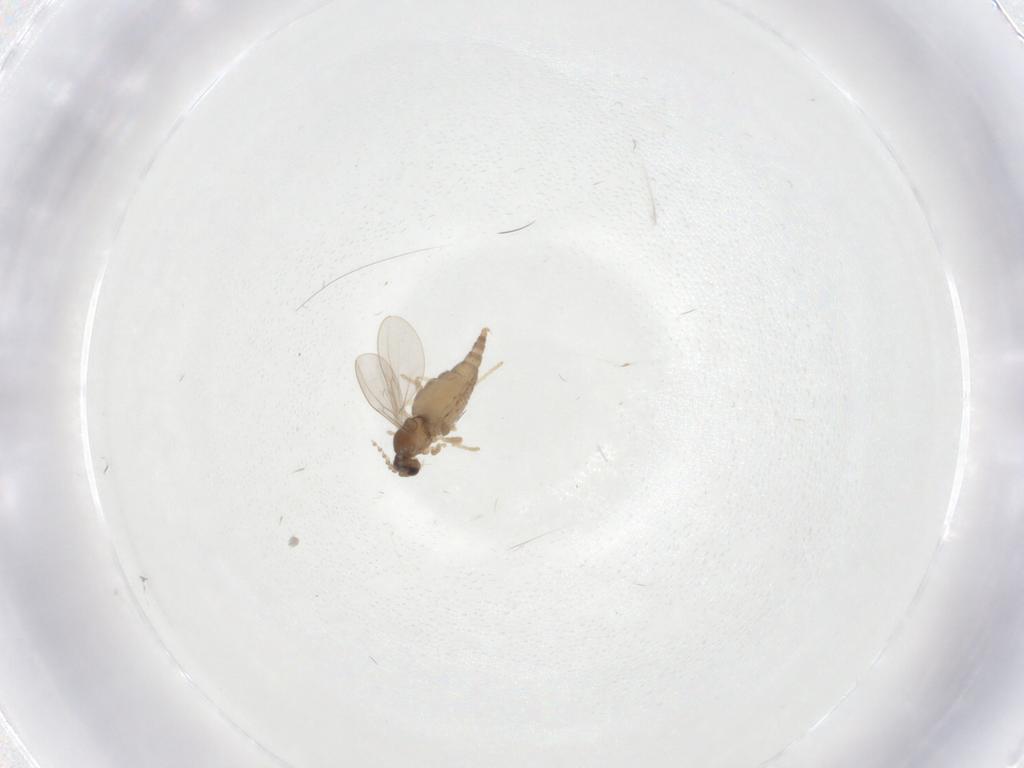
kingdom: Animalia
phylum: Arthropoda
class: Insecta
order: Diptera
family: Cecidomyiidae
